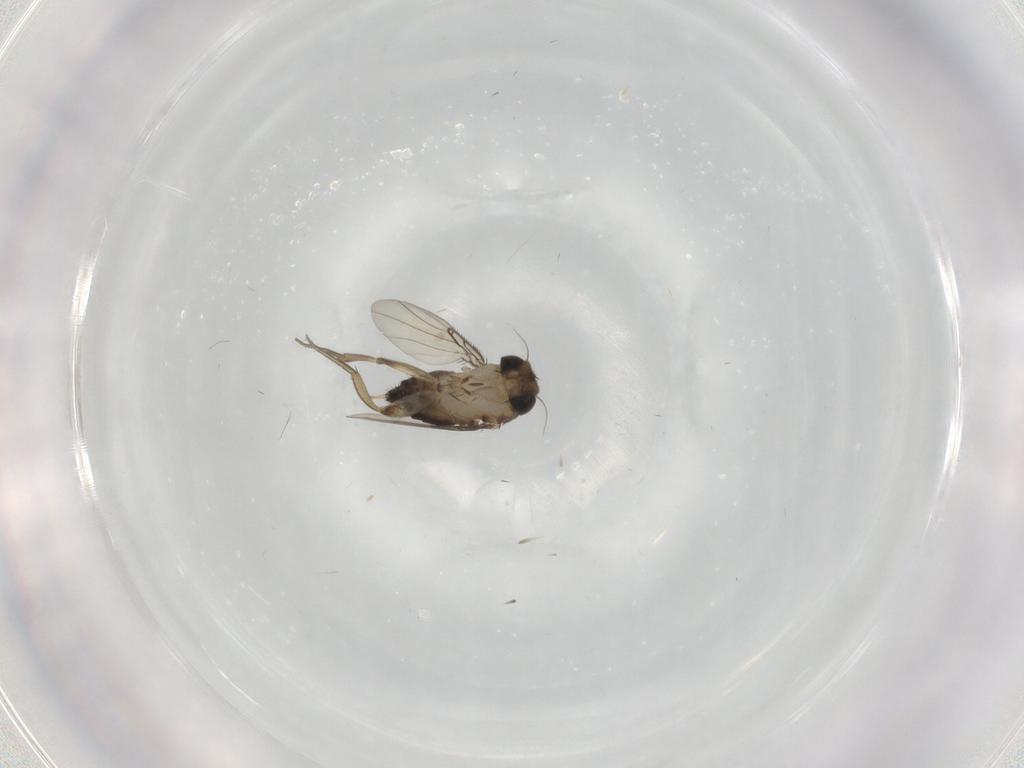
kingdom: Animalia
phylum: Arthropoda
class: Insecta
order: Diptera
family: Phoridae
